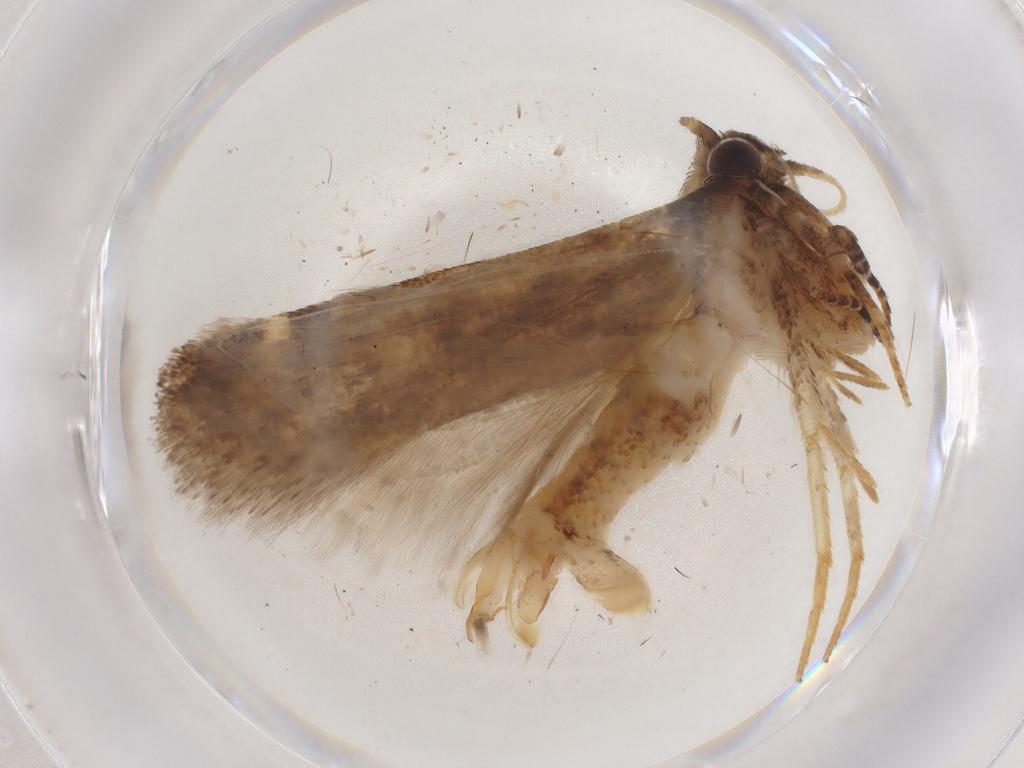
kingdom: Animalia
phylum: Arthropoda
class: Insecta
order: Lepidoptera
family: Gelechiidae
